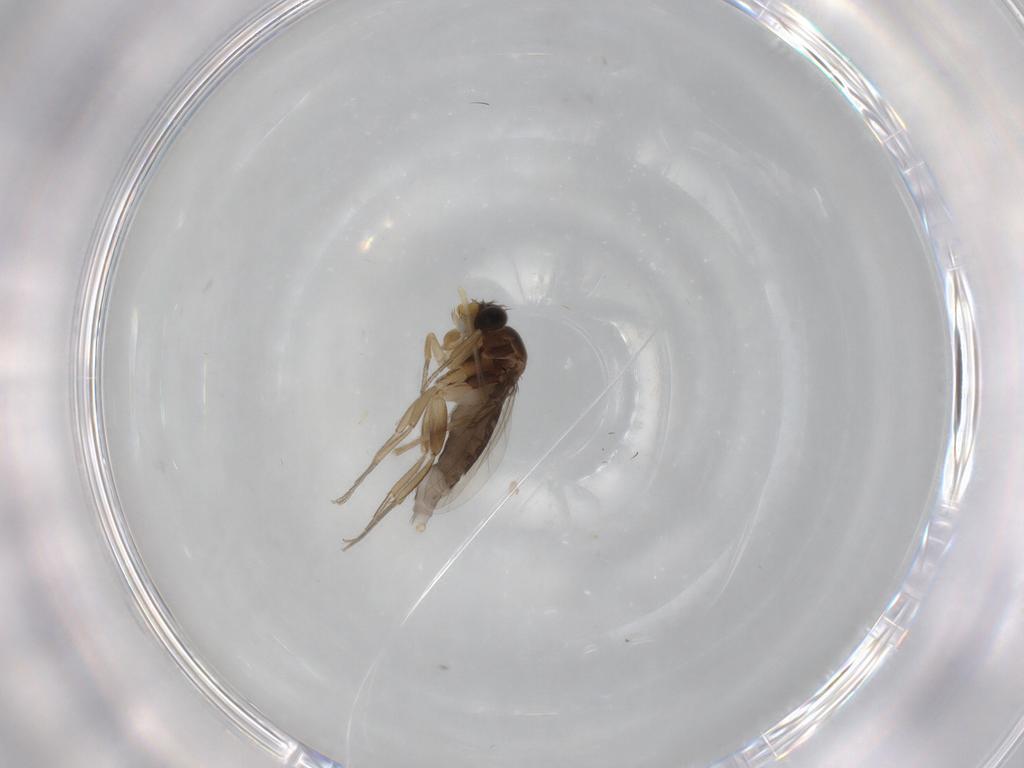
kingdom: Animalia
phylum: Arthropoda
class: Insecta
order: Diptera
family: Phoridae
